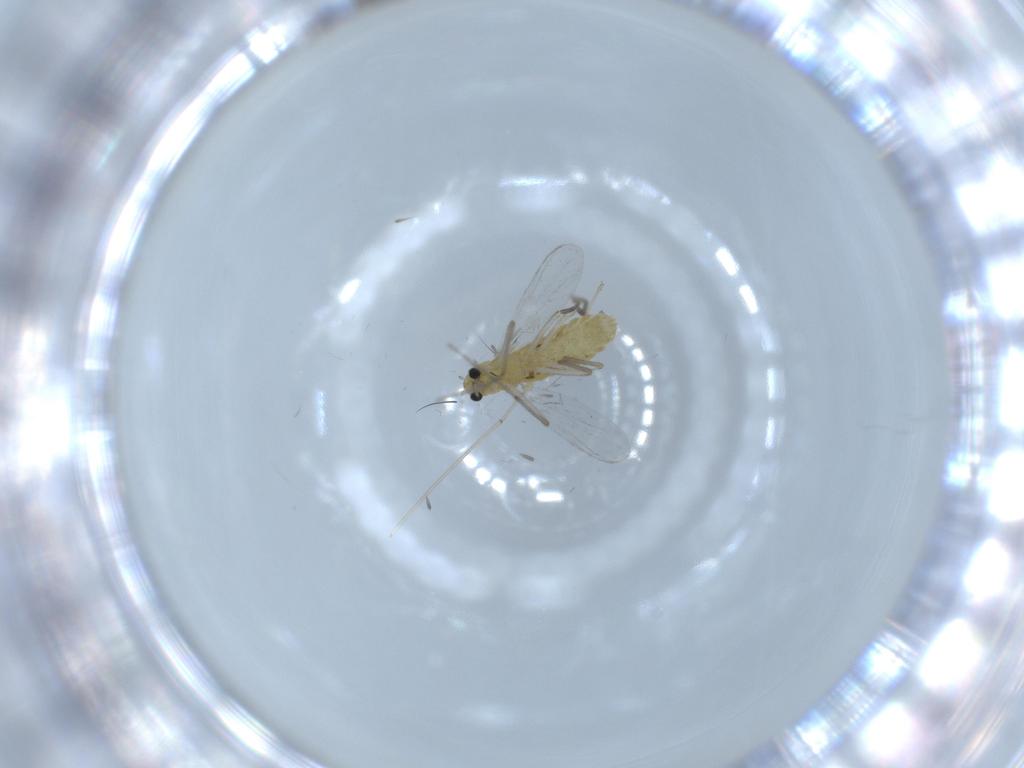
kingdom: Animalia
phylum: Arthropoda
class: Insecta
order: Diptera
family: Cecidomyiidae
